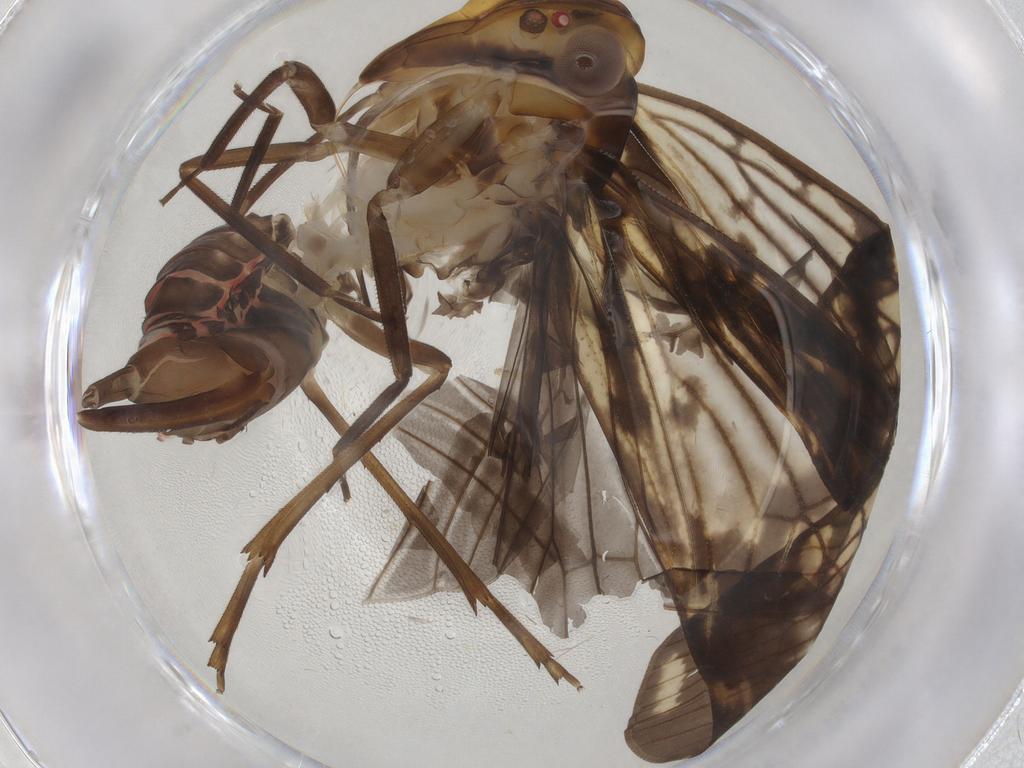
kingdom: Animalia
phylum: Arthropoda
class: Insecta
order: Hemiptera
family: Cixiidae
